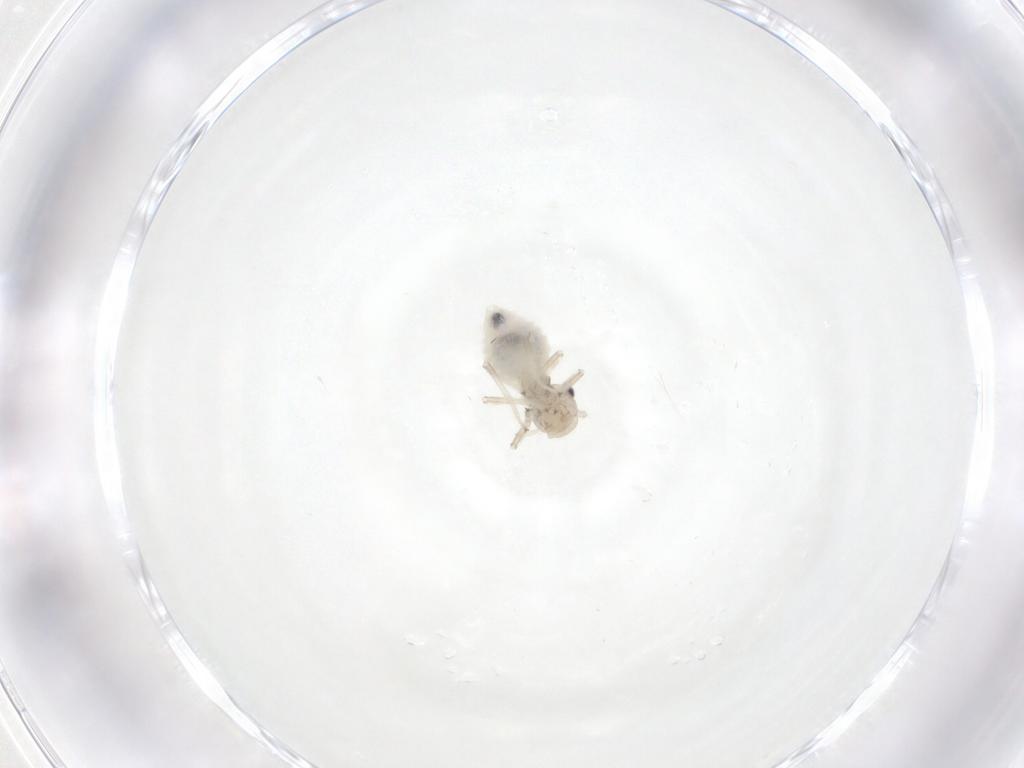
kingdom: Animalia
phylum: Arthropoda
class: Insecta
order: Psocodea
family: Amphipsocidae
